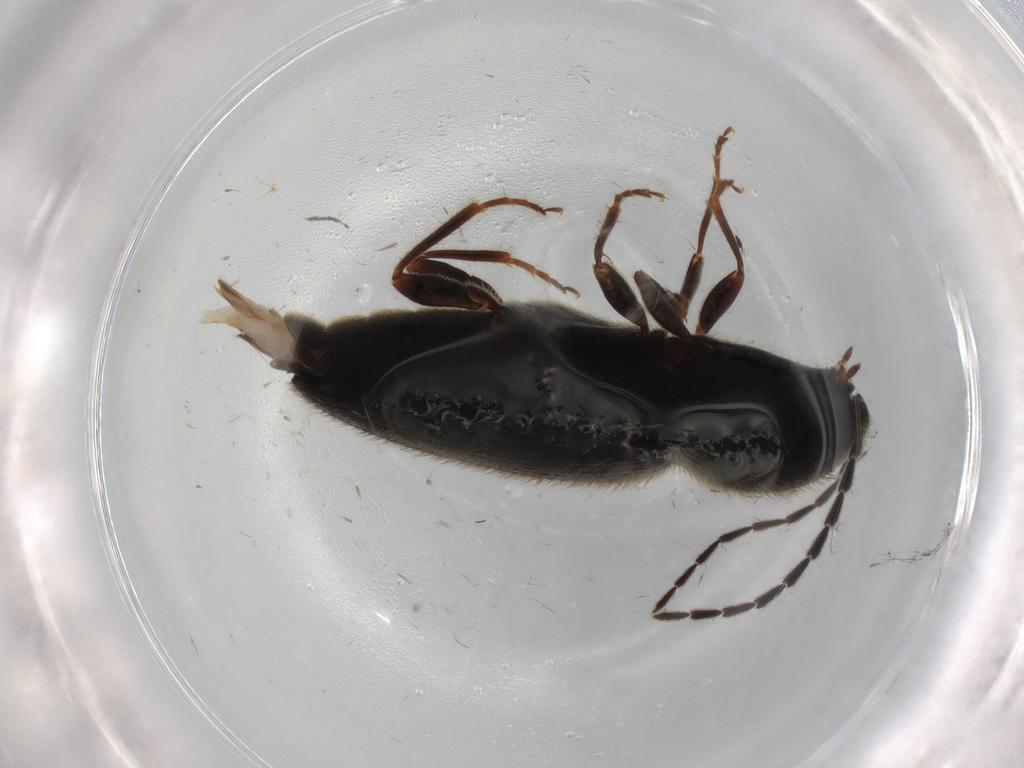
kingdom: Animalia
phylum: Arthropoda
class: Insecta
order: Coleoptera
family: Elateridae
